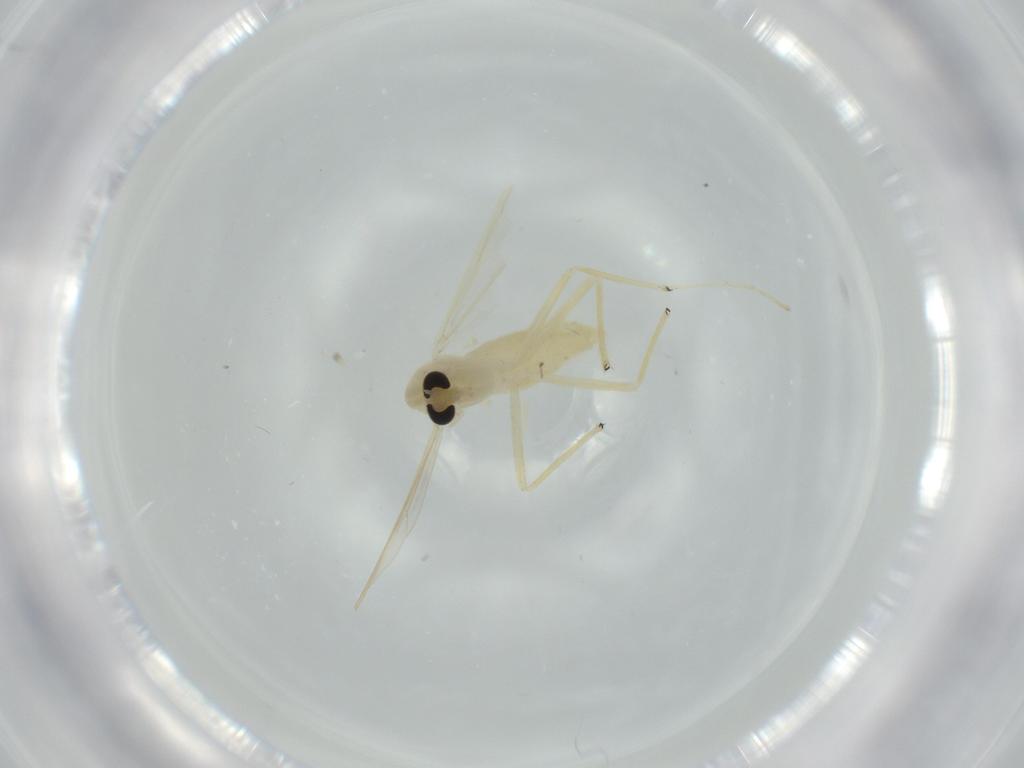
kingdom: Animalia
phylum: Arthropoda
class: Insecta
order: Diptera
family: Chironomidae
